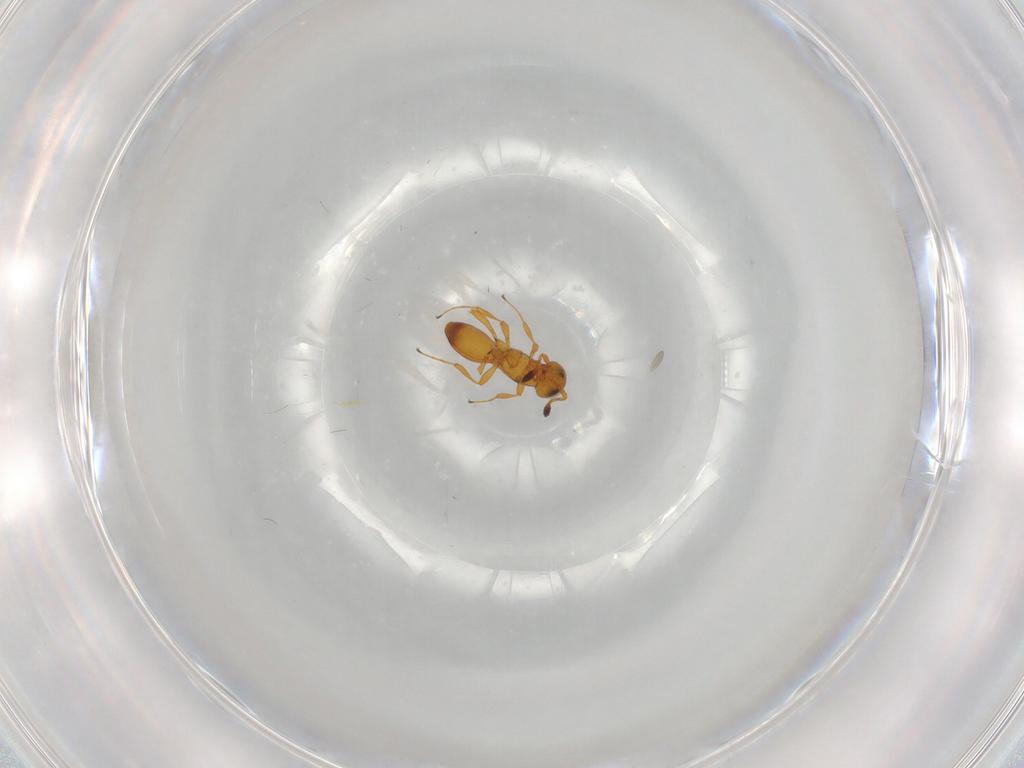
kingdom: Animalia
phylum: Arthropoda
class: Insecta
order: Hymenoptera
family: Platygastridae
